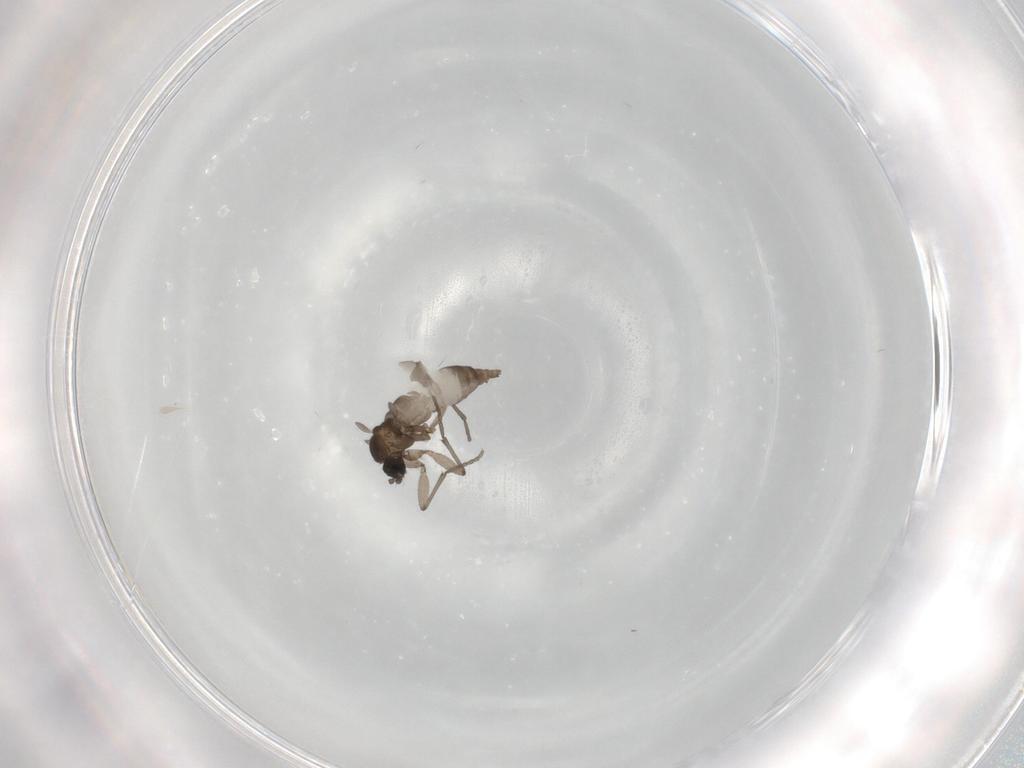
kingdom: Animalia
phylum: Arthropoda
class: Insecta
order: Diptera
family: Sciaridae
